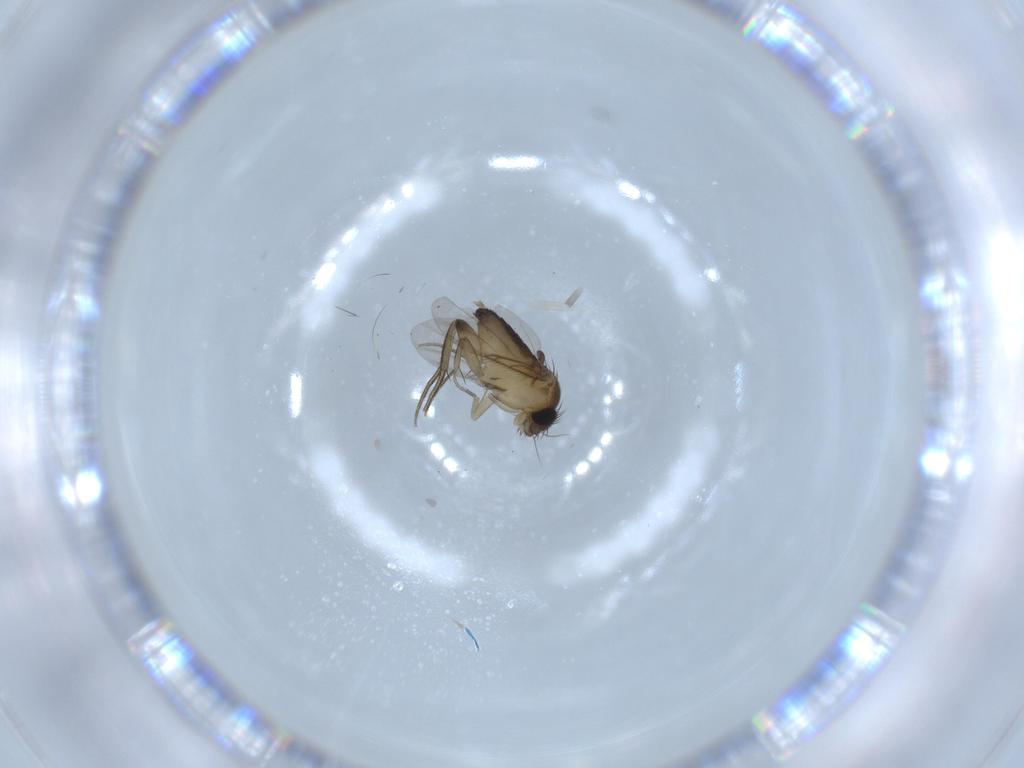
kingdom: Animalia
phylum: Arthropoda
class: Insecta
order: Diptera
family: Phoridae
